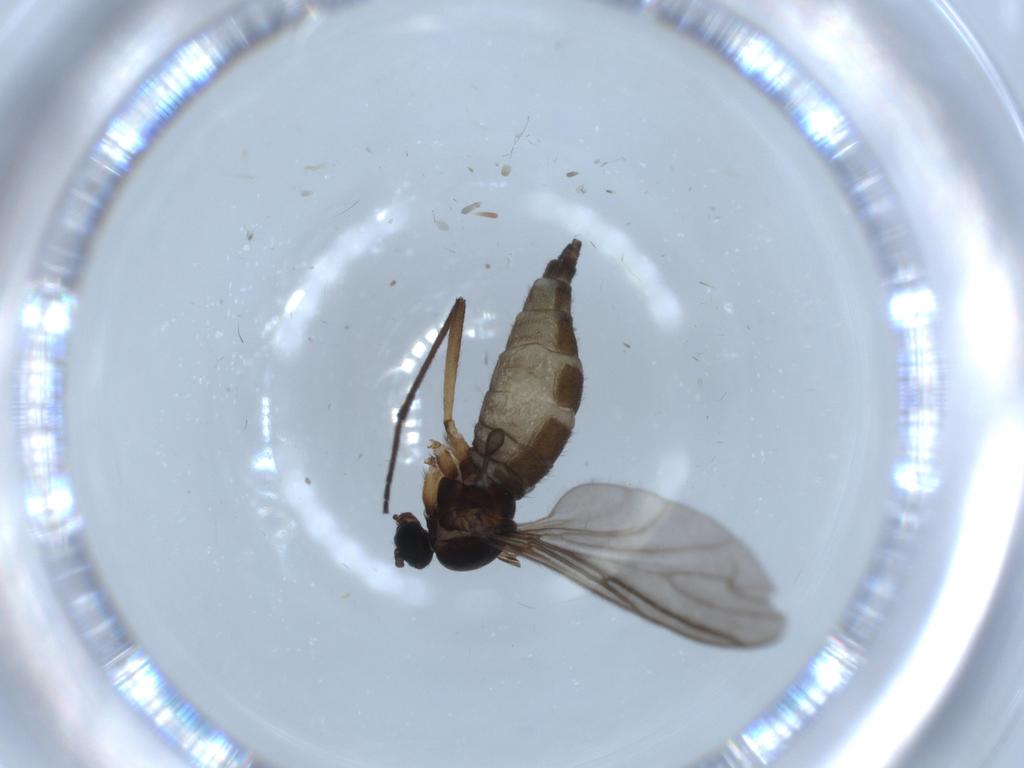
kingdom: Animalia
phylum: Arthropoda
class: Insecta
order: Diptera
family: Sciaridae
